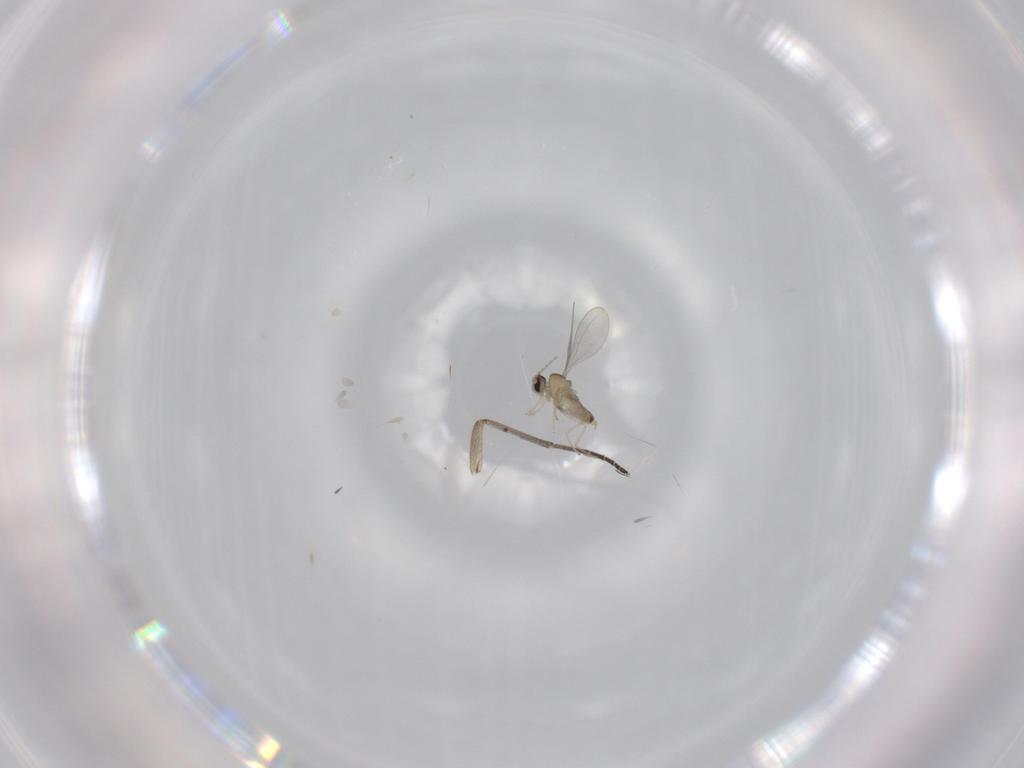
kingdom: Animalia
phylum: Arthropoda
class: Insecta
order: Diptera
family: Cecidomyiidae
